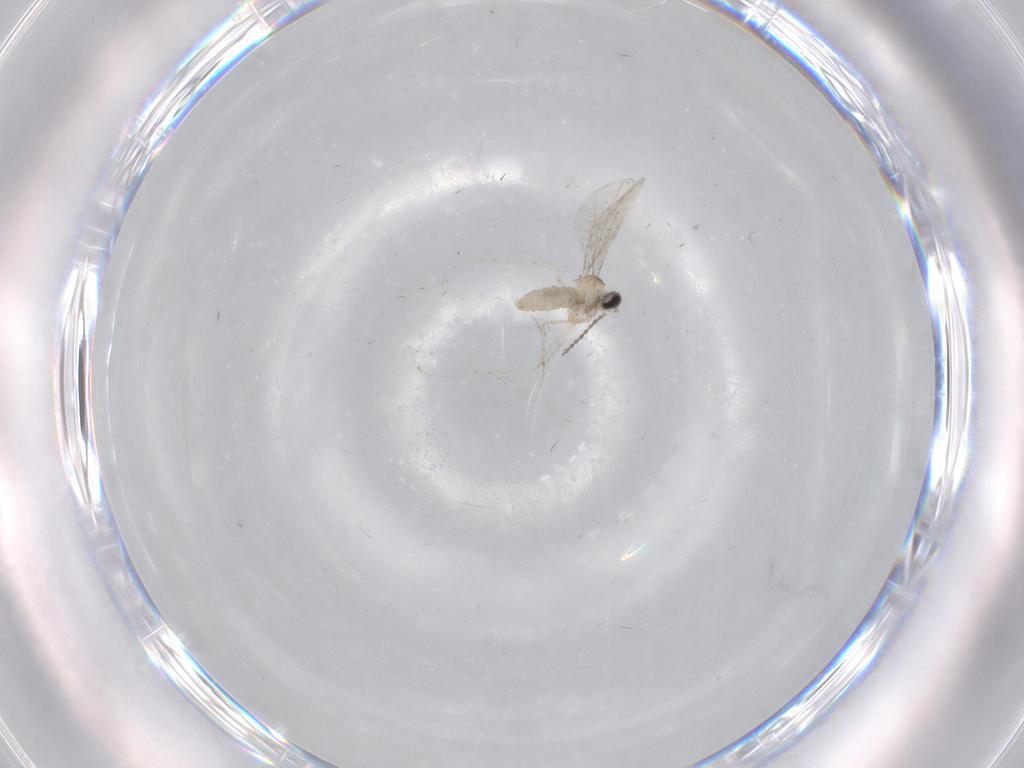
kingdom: Animalia
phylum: Arthropoda
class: Insecta
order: Diptera
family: Cecidomyiidae
